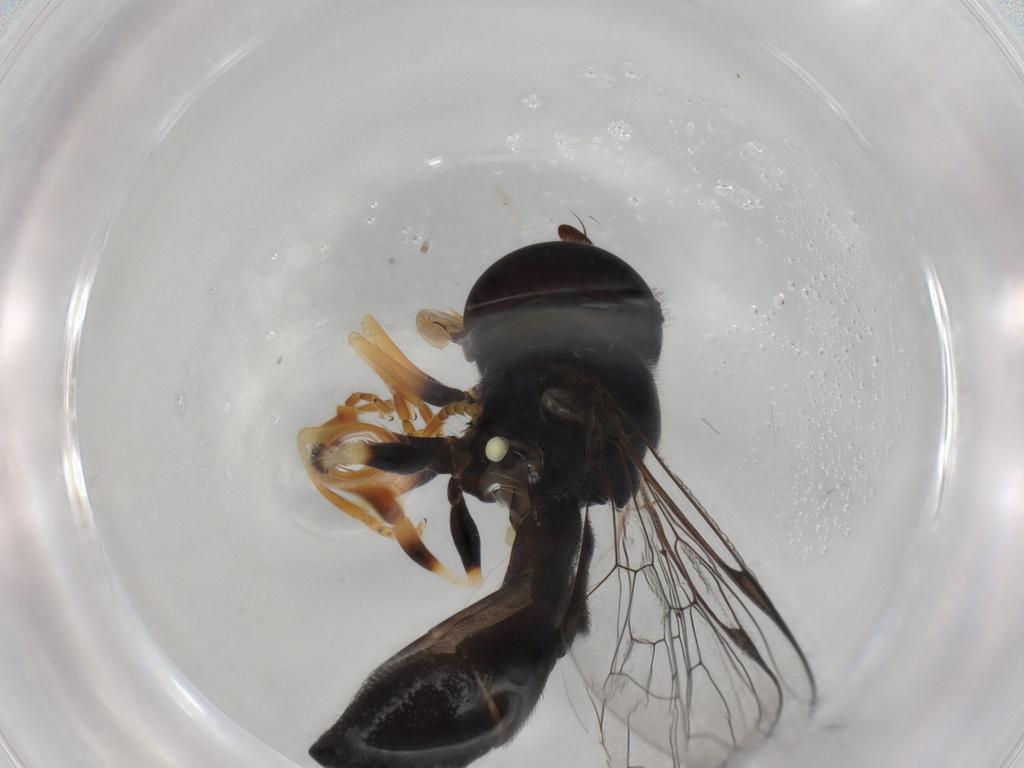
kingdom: Animalia
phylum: Arthropoda
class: Insecta
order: Diptera
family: Syrphidae
